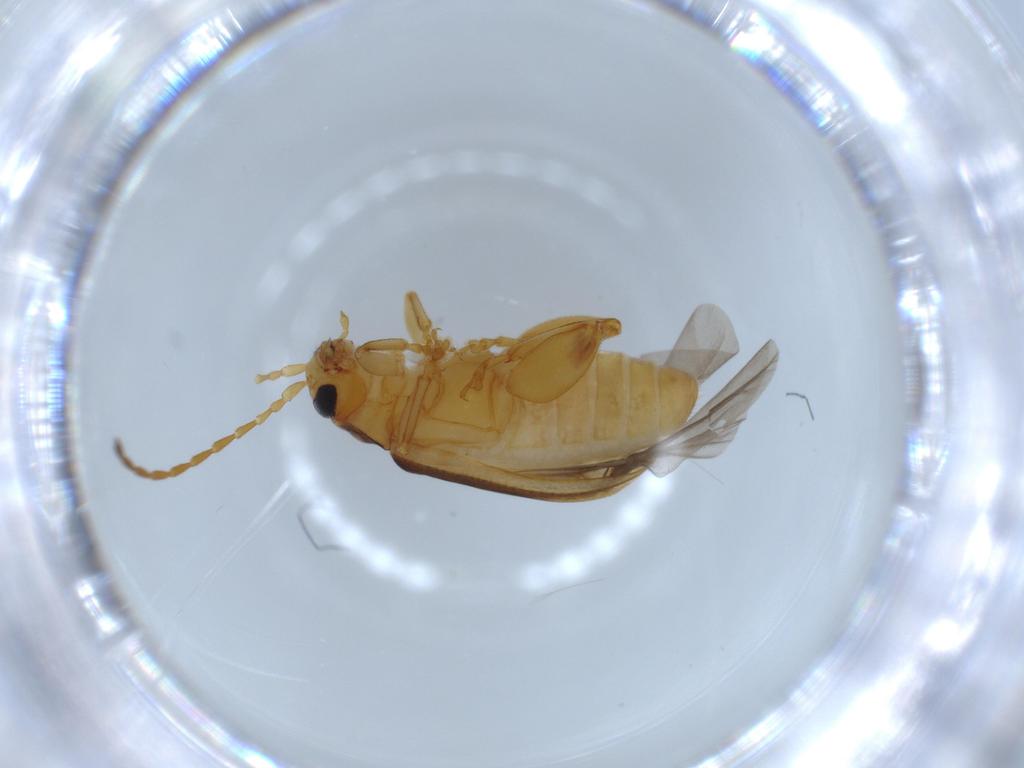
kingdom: Animalia
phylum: Arthropoda
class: Insecta
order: Coleoptera
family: Chrysomelidae
